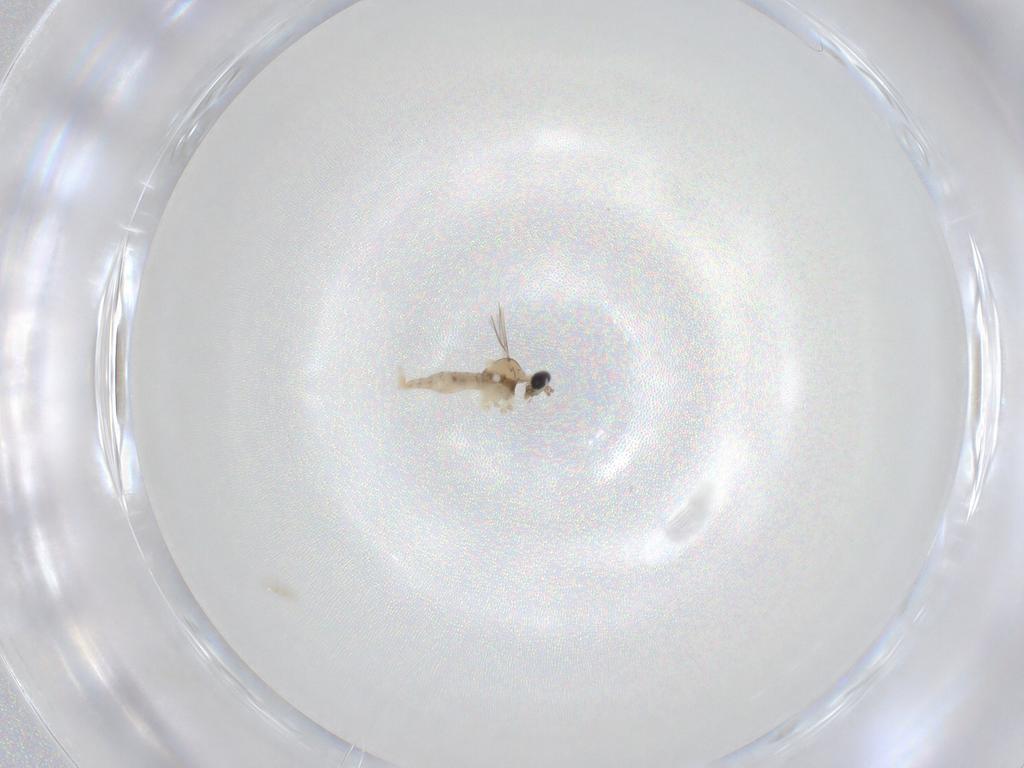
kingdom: Animalia
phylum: Arthropoda
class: Insecta
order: Diptera
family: Cecidomyiidae
